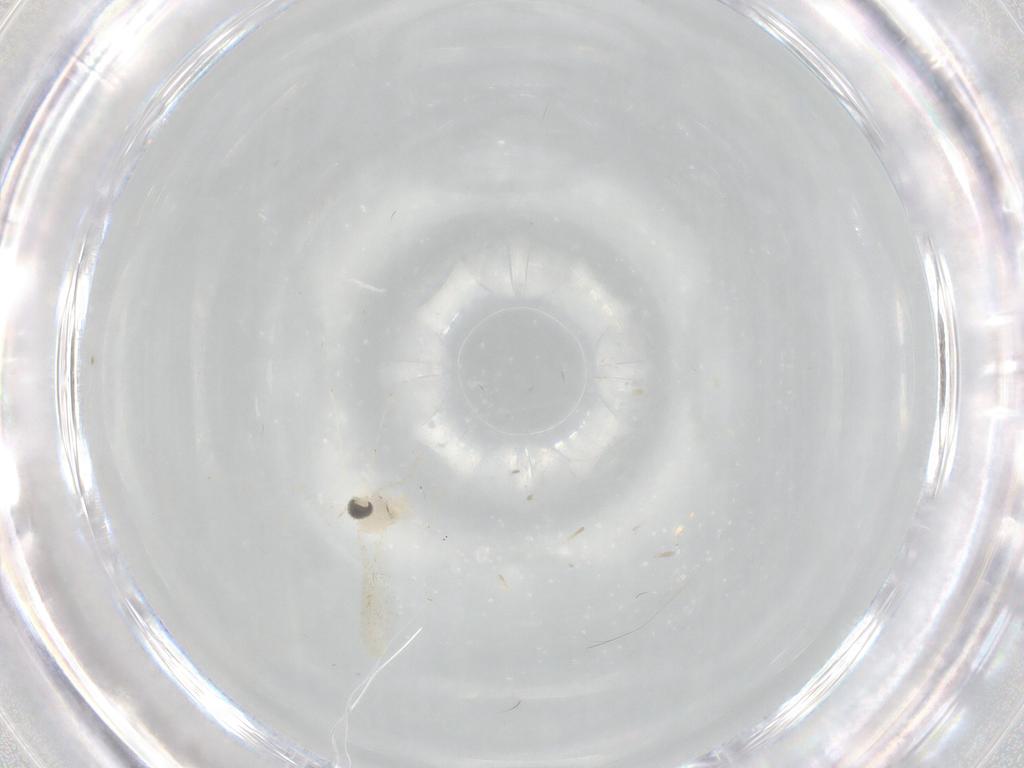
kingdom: Animalia
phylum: Arthropoda
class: Insecta
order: Diptera
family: Cecidomyiidae
